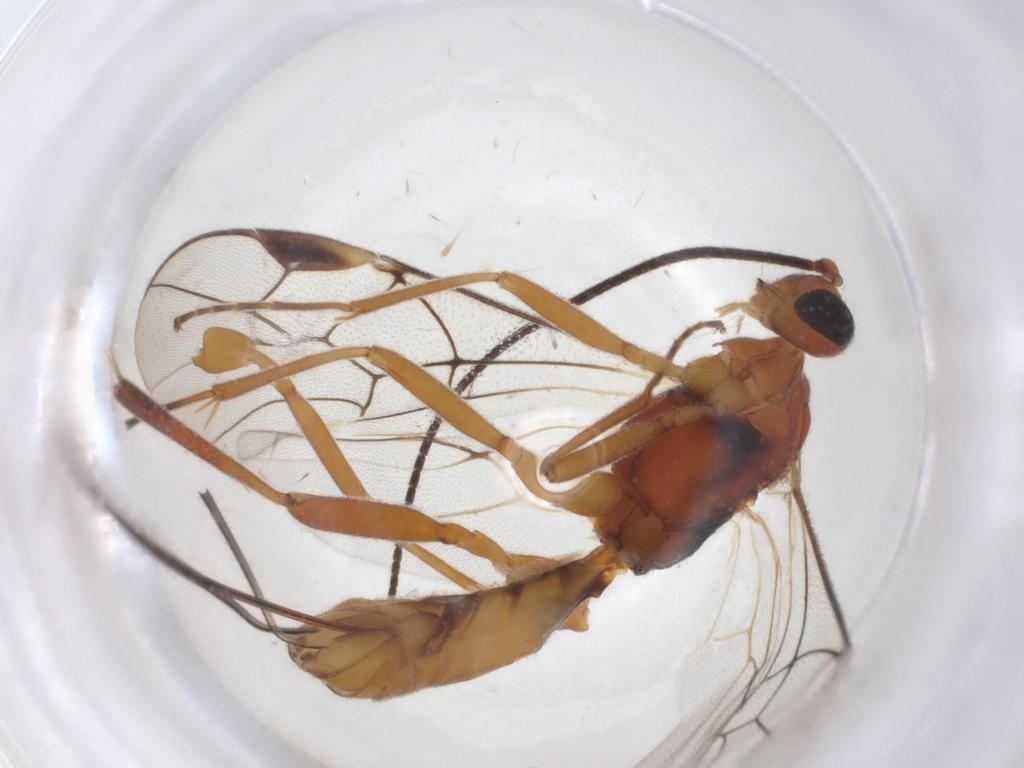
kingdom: Animalia
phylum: Arthropoda
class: Insecta
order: Hymenoptera
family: Braconidae
